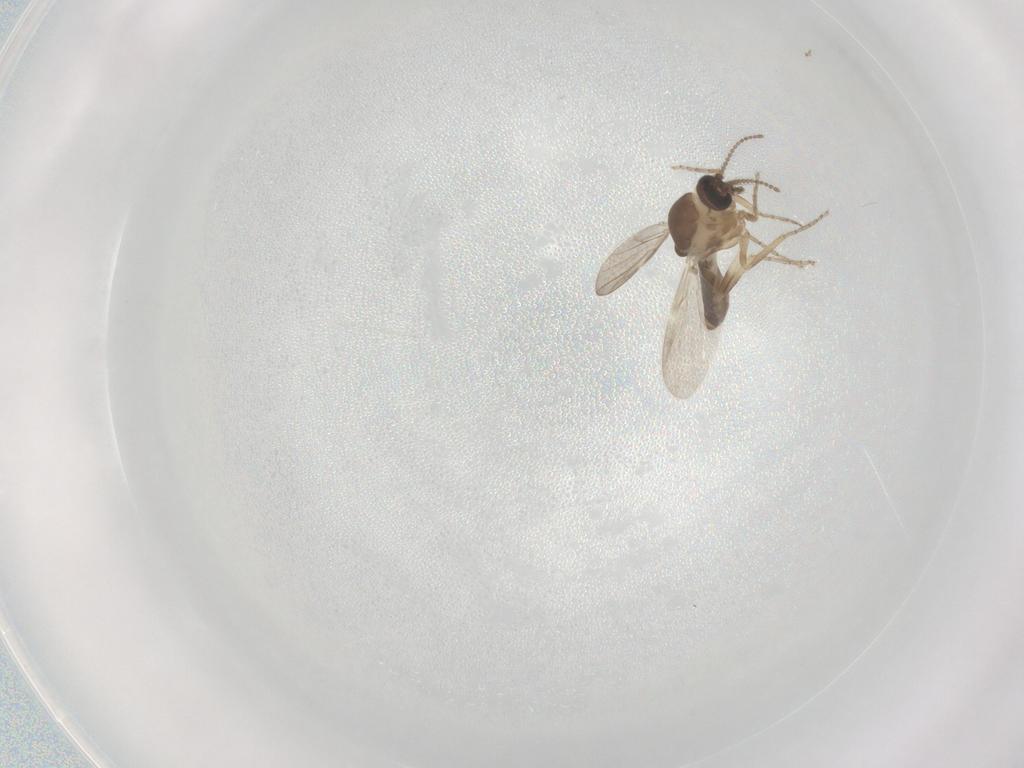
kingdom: Animalia
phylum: Arthropoda
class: Insecta
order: Diptera
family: Ceratopogonidae
